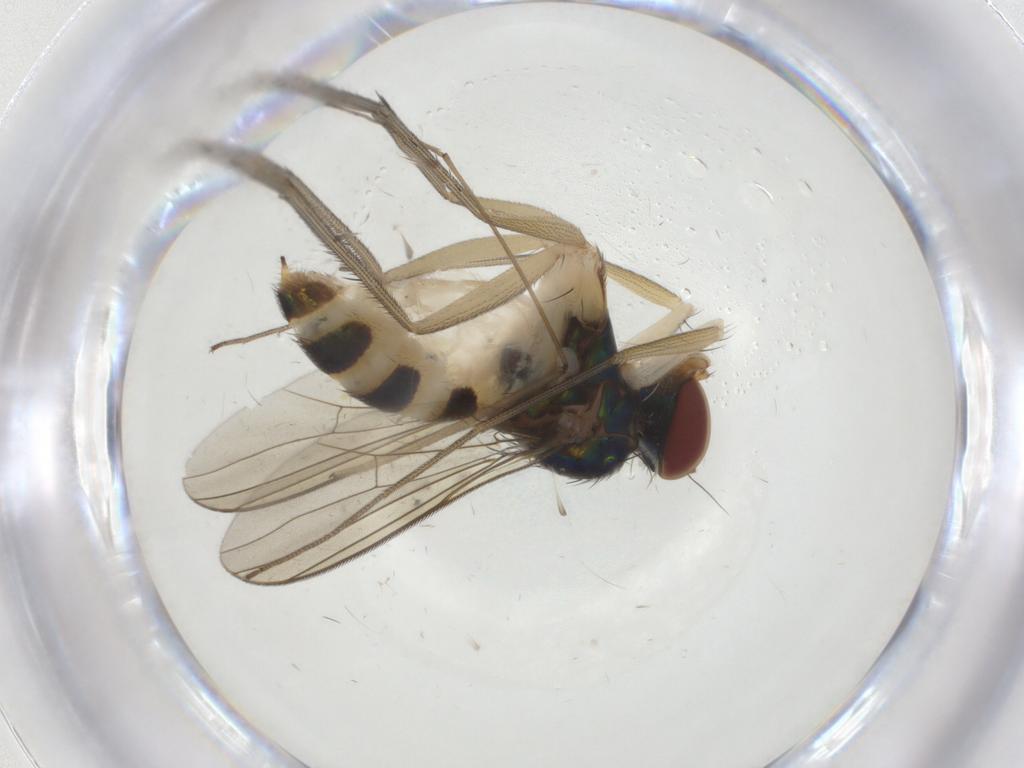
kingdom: Animalia
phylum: Arthropoda
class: Insecta
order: Diptera
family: Dolichopodidae
